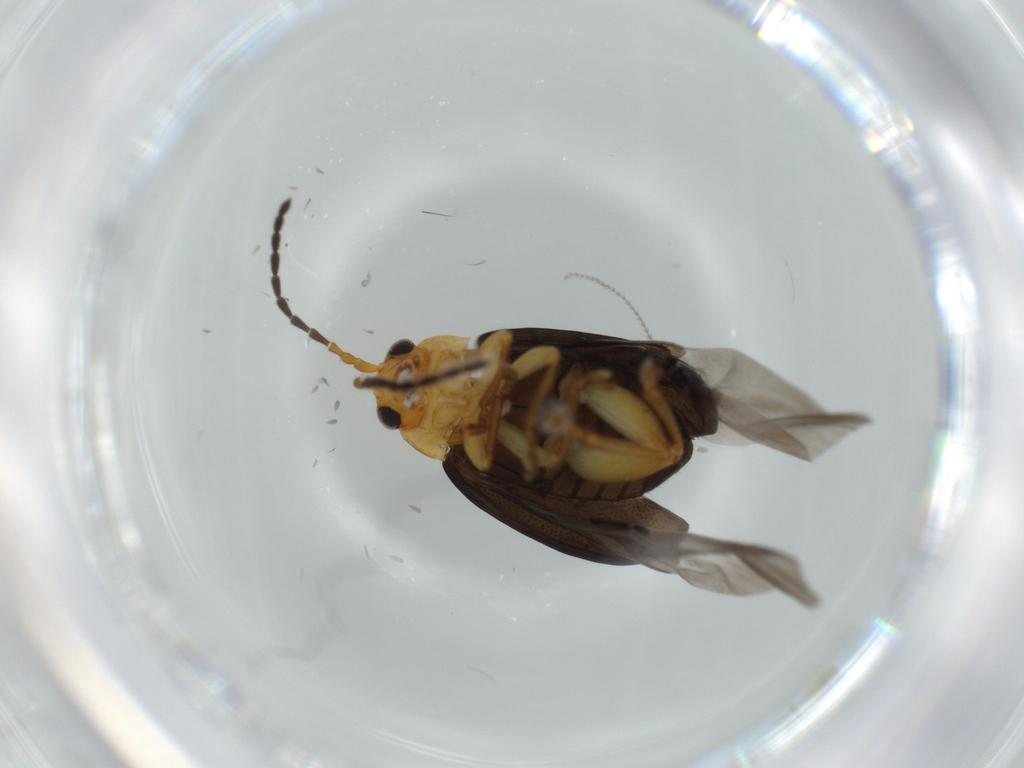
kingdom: Animalia
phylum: Arthropoda
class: Insecta
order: Coleoptera
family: Chrysomelidae
